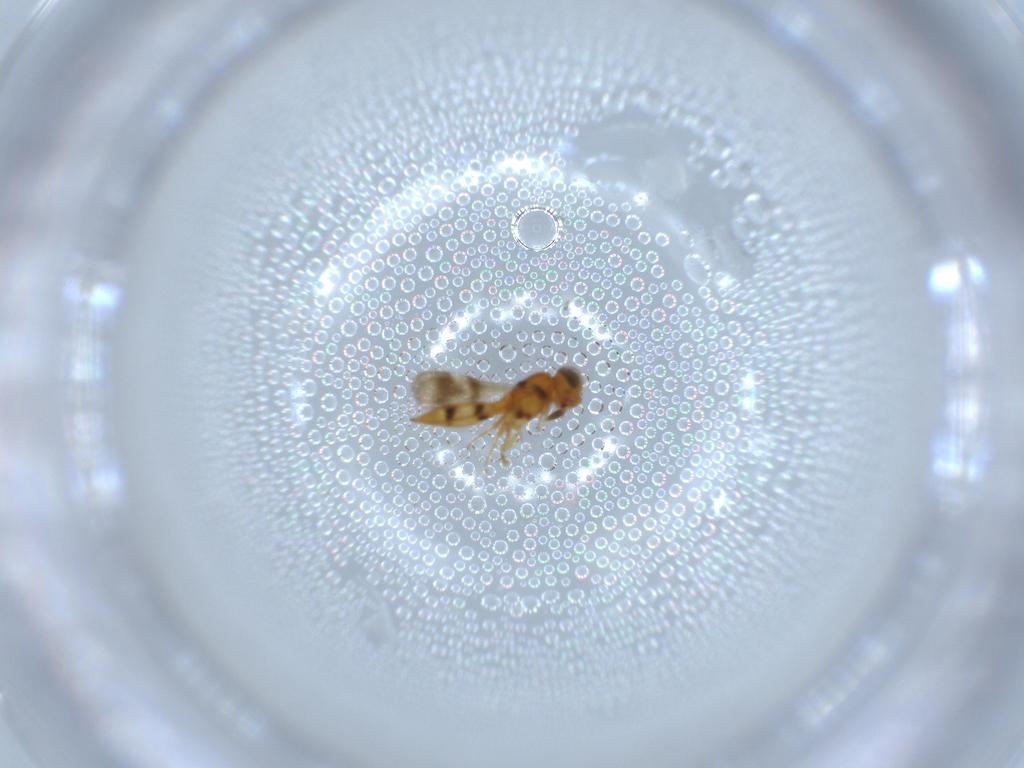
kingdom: Animalia
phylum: Arthropoda
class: Insecta
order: Hymenoptera
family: Scelionidae
